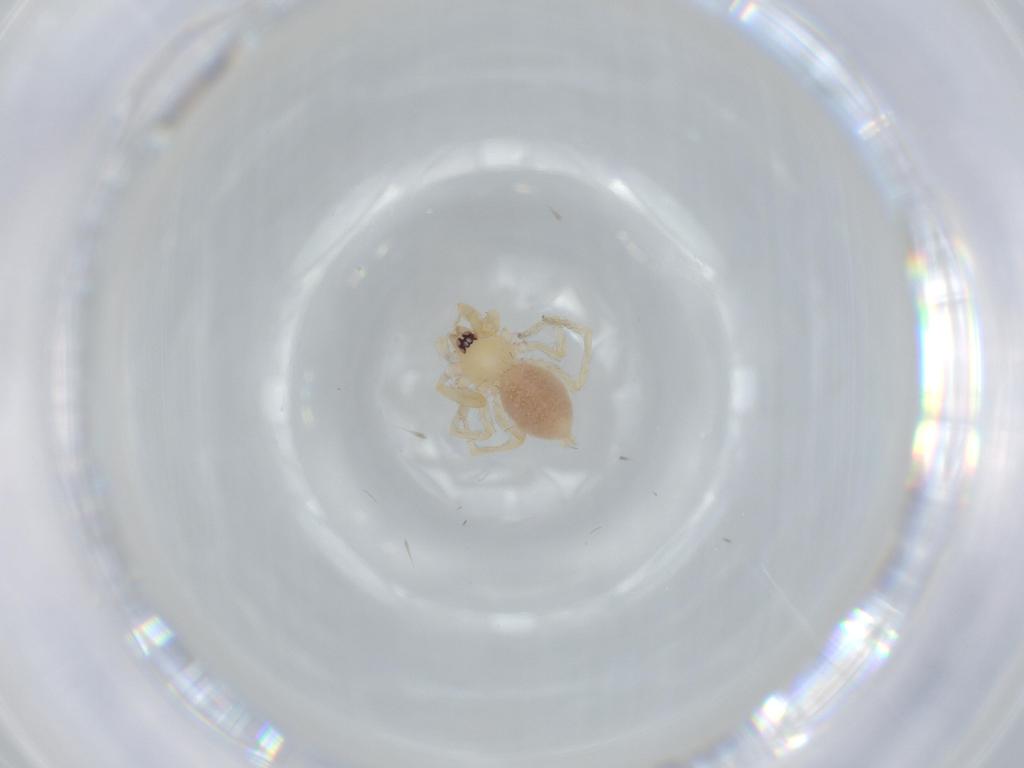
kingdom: Animalia
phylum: Arthropoda
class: Arachnida
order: Araneae
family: Oonopidae
